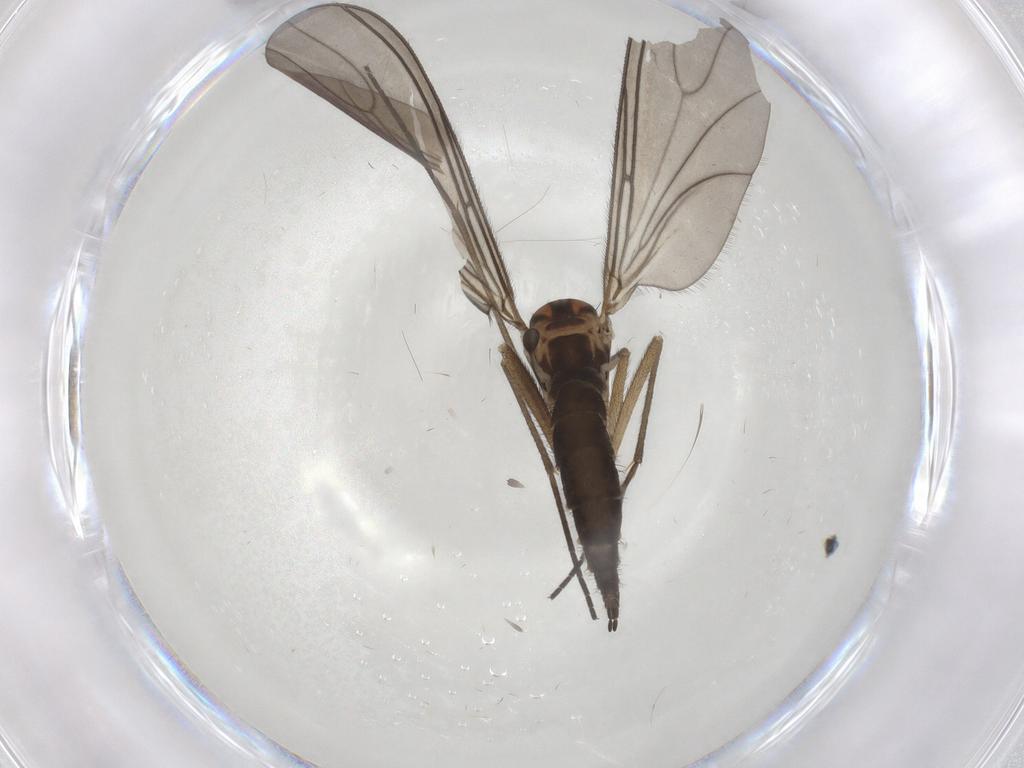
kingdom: Animalia
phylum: Arthropoda
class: Insecta
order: Diptera
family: Sciaridae
